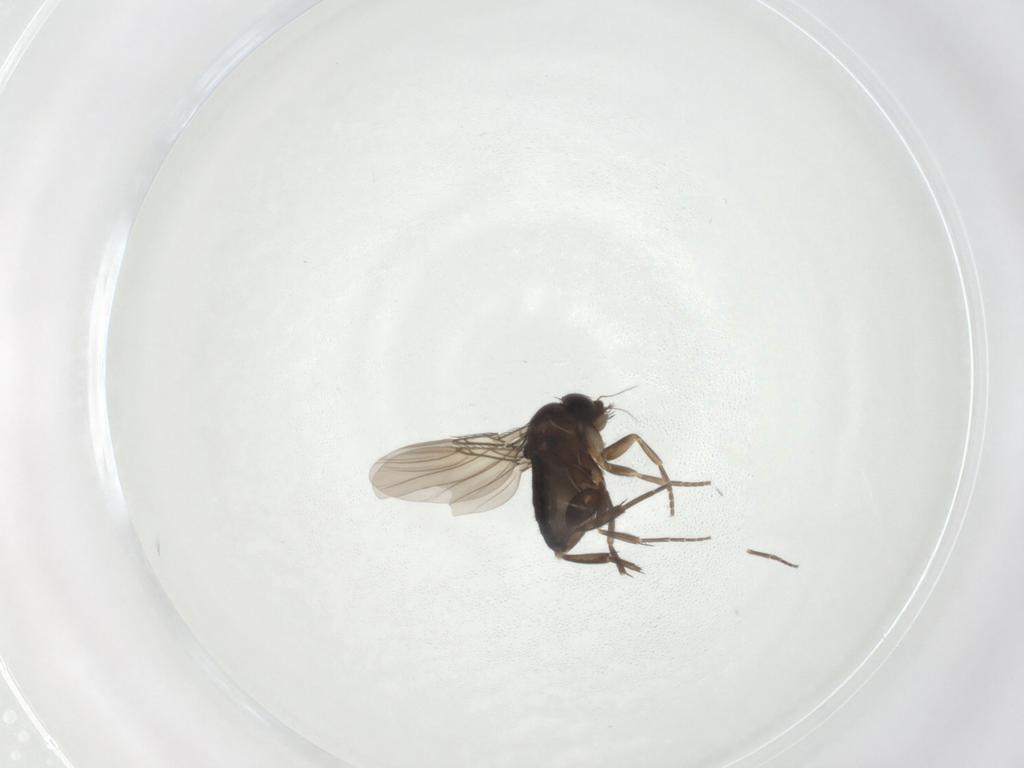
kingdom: Animalia
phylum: Arthropoda
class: Insecta
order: Diptera
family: Phoridae
